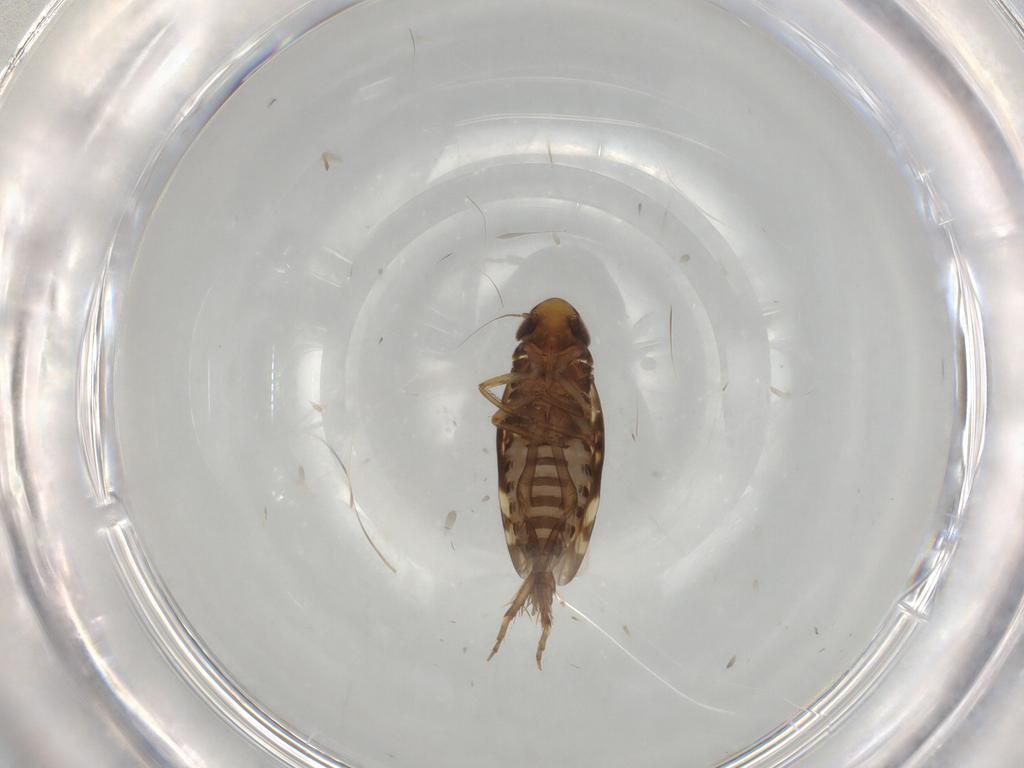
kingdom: Animalia
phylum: Arthropoda
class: Insecta
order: Hemiptera
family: Cicadellidae
